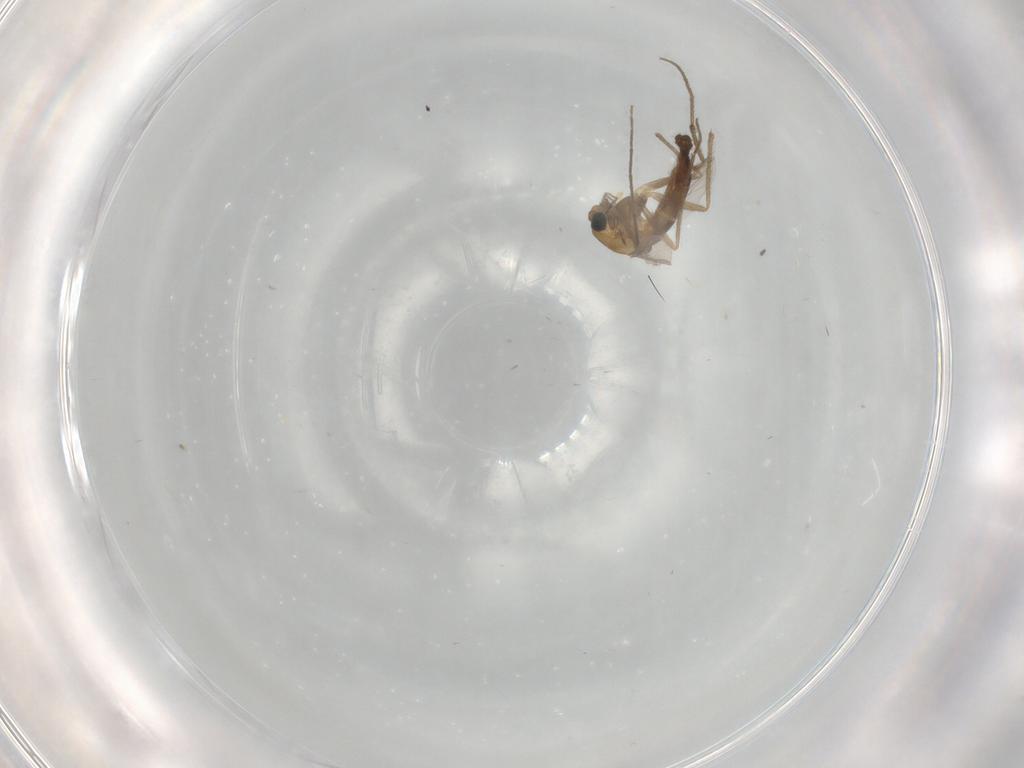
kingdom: Animalia
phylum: Arthropoda
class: Insecta
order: Diptera
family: Chironomidae
